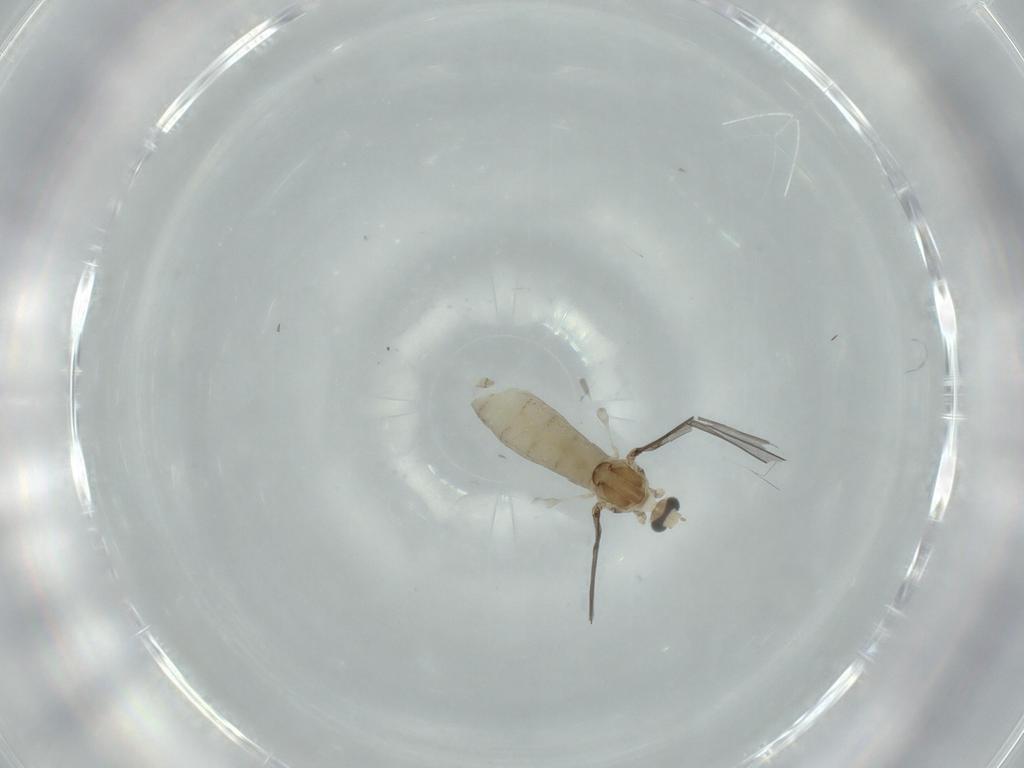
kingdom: Animalia
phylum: Arthropoda
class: Insecta
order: Diptera
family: Cecidomyiidae
